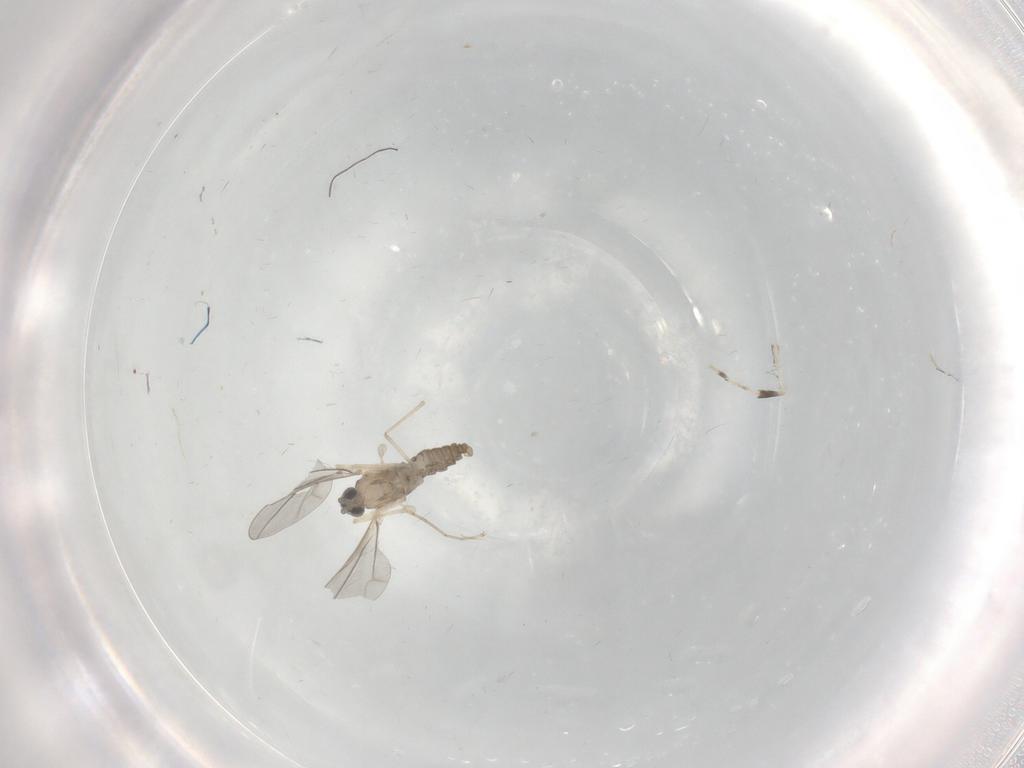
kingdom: Animalia
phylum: Arthropoda
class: Insecta
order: Diptera
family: Cecidomyiidae
